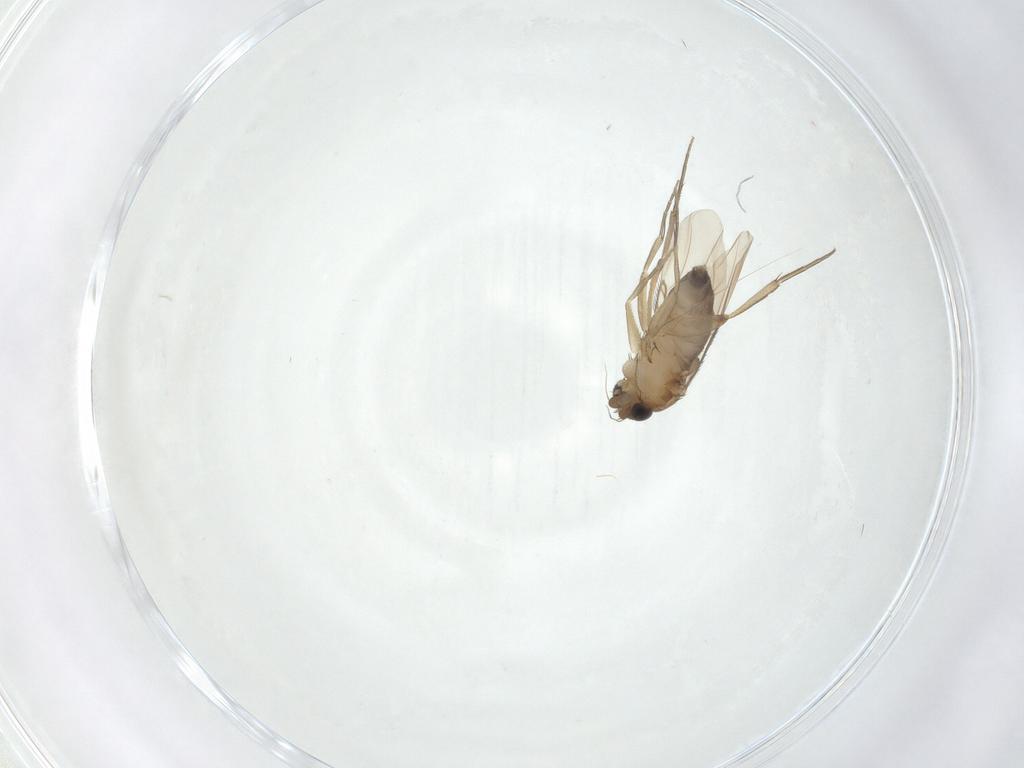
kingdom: Animalia
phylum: Arthropoda
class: Insecta
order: Diptera
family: Phoridae
